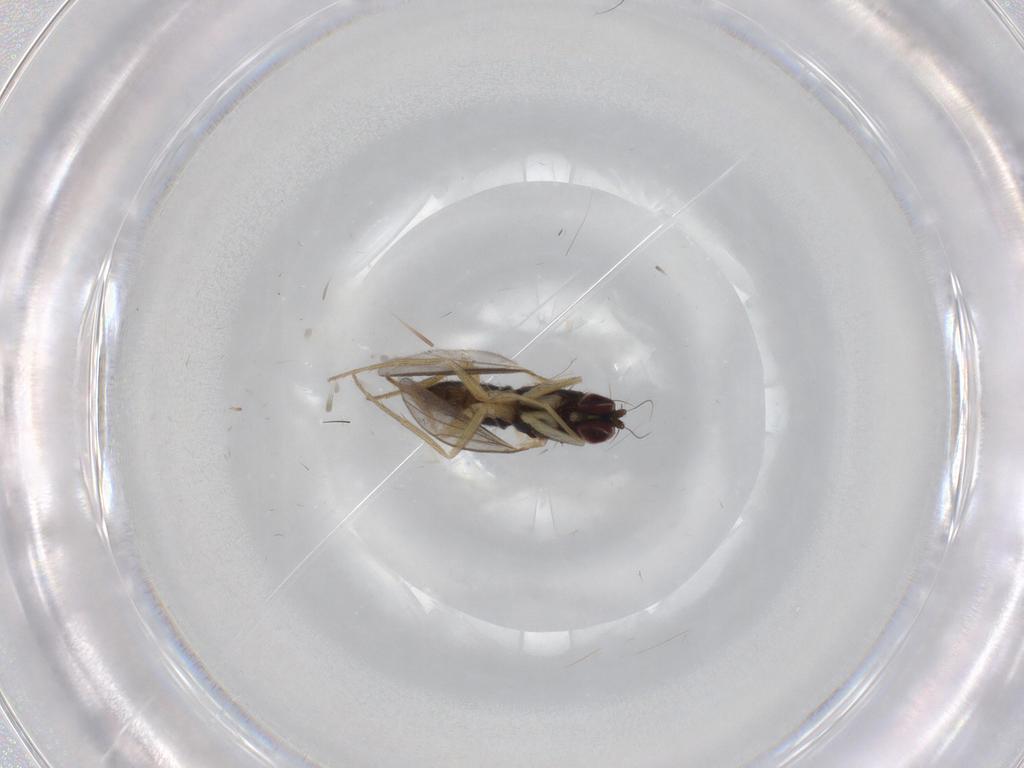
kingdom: Animalia
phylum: Arthropoda
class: Insecta
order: Diptera
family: Dolichopodidae
